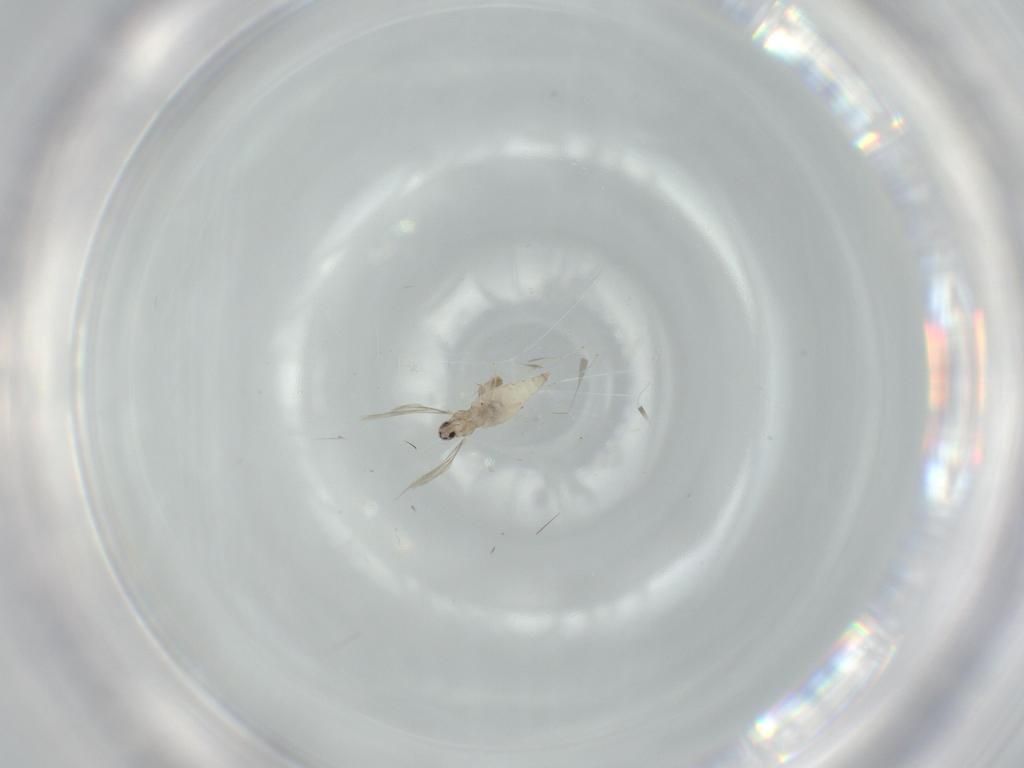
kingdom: Animalia
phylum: Arthropoda
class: Insecta
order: Diptera
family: Cecidomyiidae
